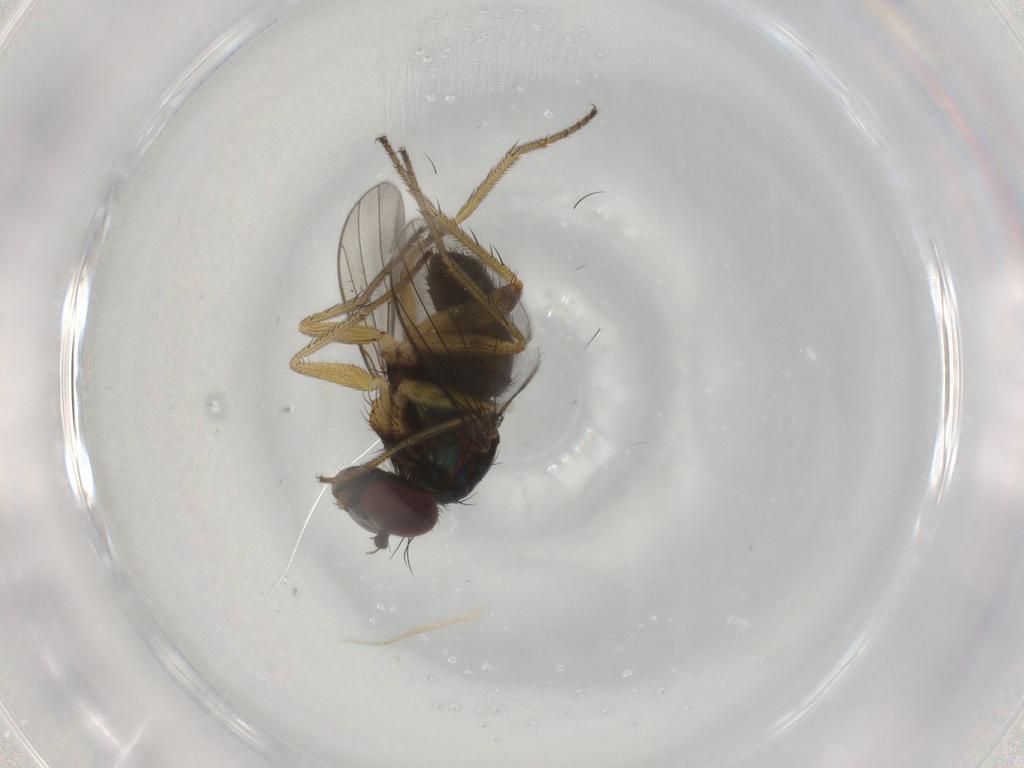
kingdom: Animalia
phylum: Arthropoda
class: Insecta
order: Diptera
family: Dolichopodidae
